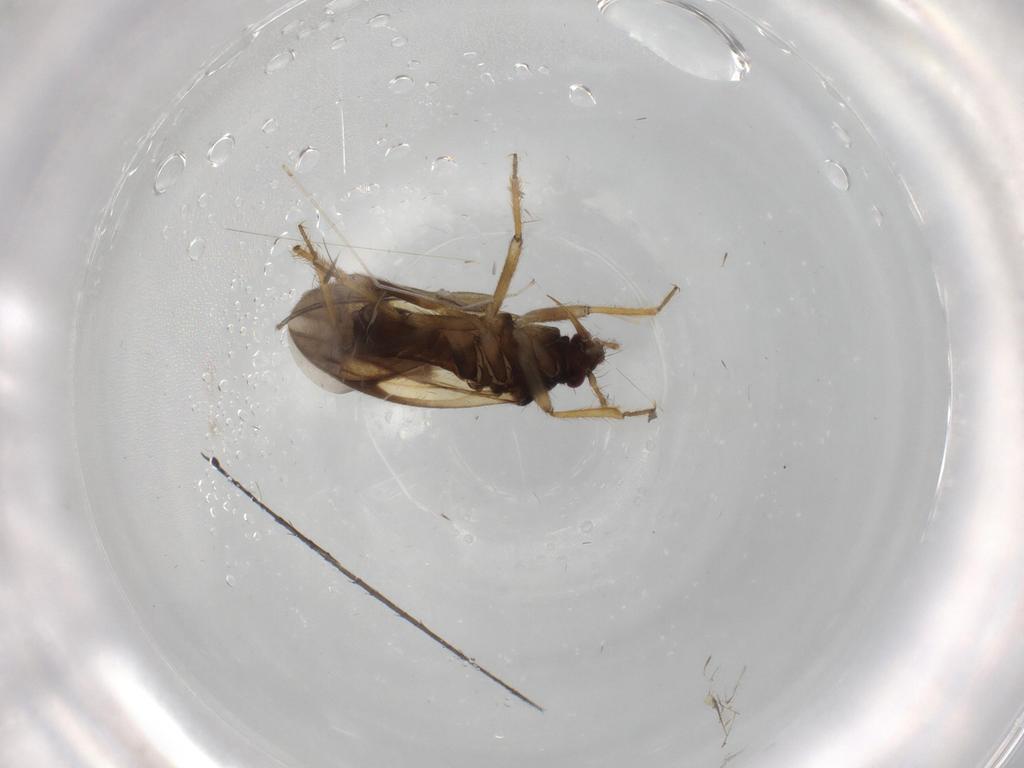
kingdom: Animalia
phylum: Arthropoda
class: Insecta
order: Hemiptera
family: Ceratocombidae
